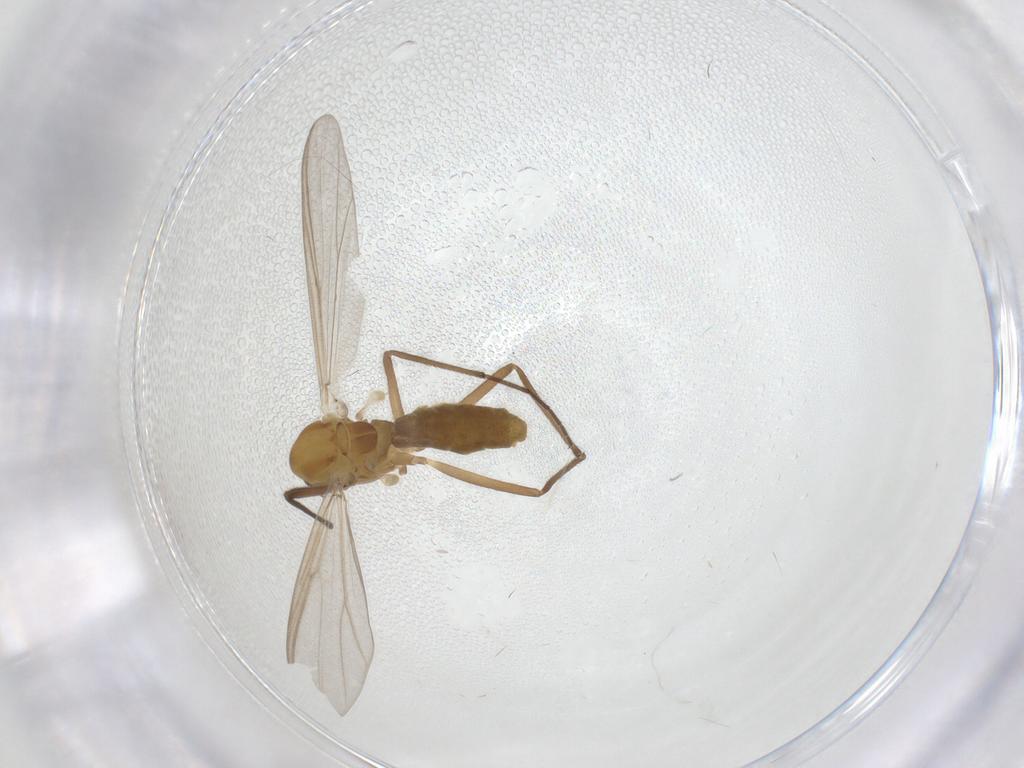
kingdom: Animalia
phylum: Arthropoda
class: Insecta
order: Diptera
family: Chironomidae
